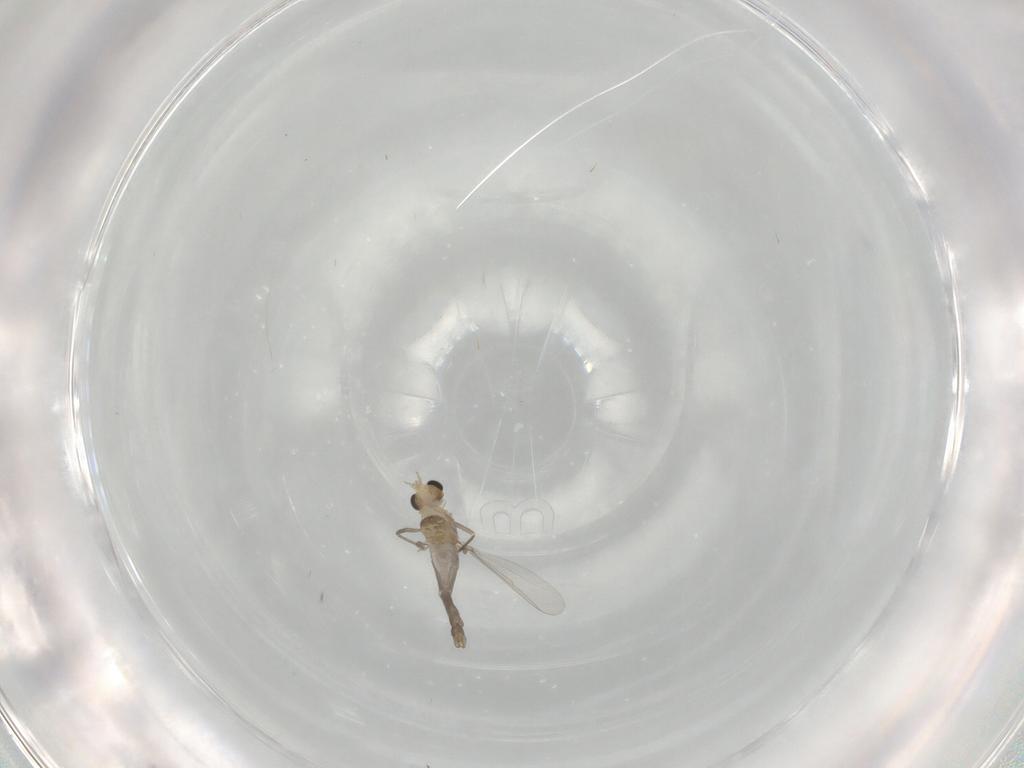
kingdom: Animalia
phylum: Arthropoda
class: Insecta
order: Diptera
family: Chironomidae
